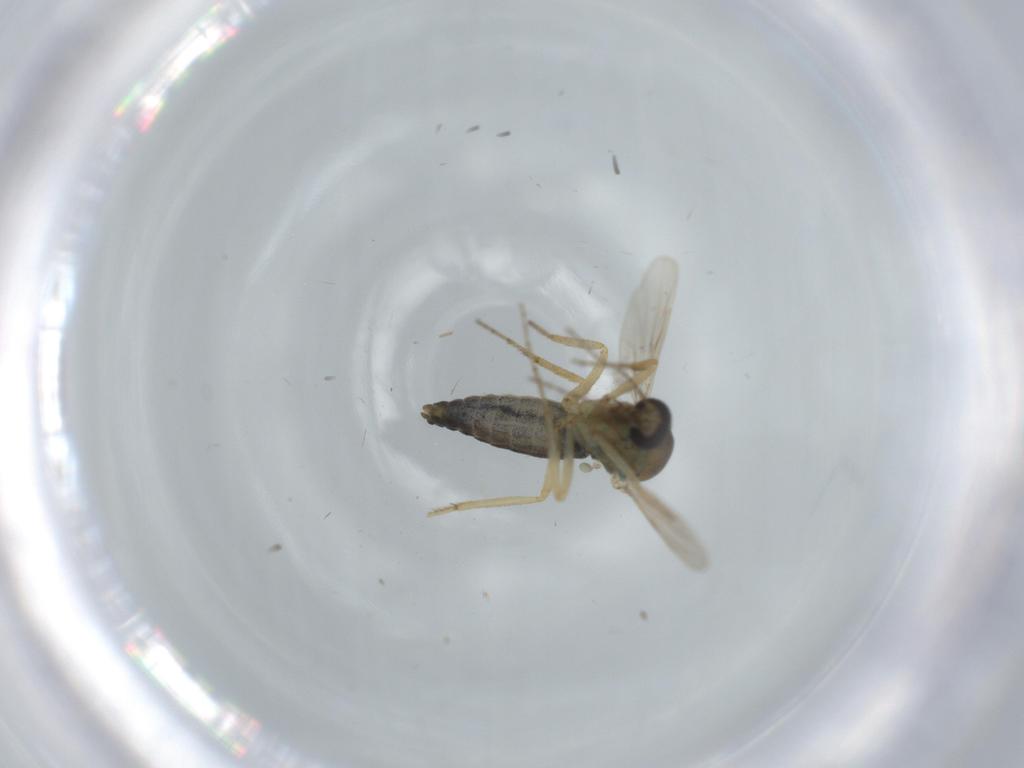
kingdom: Animalia
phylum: Arthropoda
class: Insecta
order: Diptera
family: Ceratopogonidae
